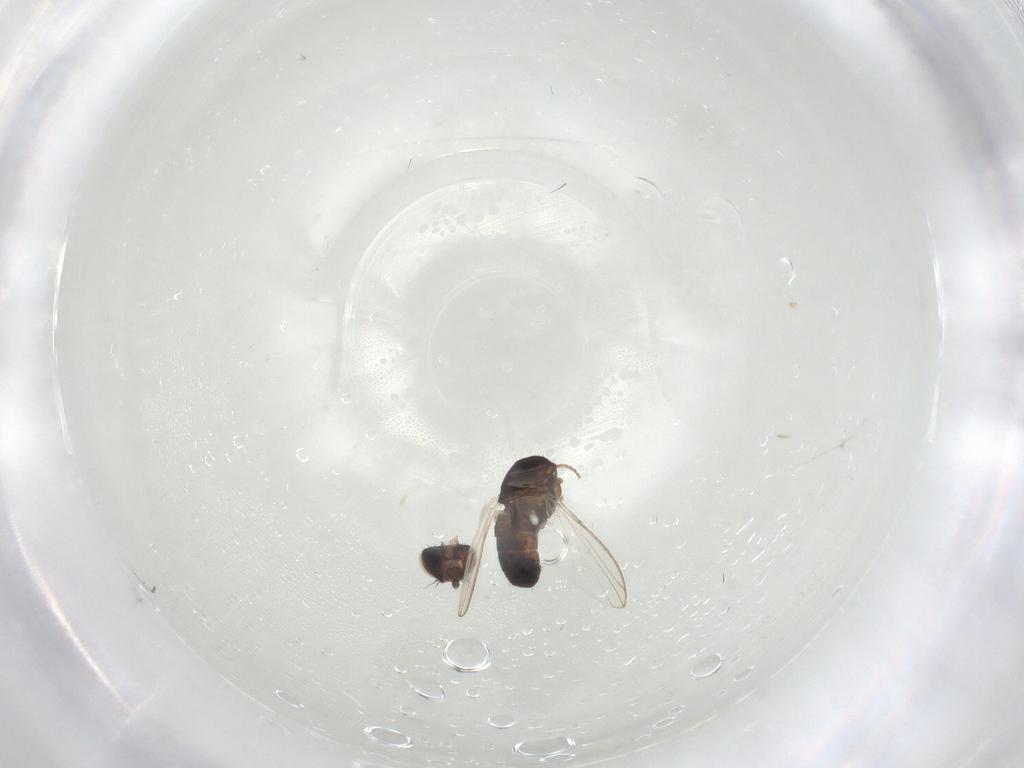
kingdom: Animalia
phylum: Arthropoda
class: Insecta
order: Diptera
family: Carnidae
